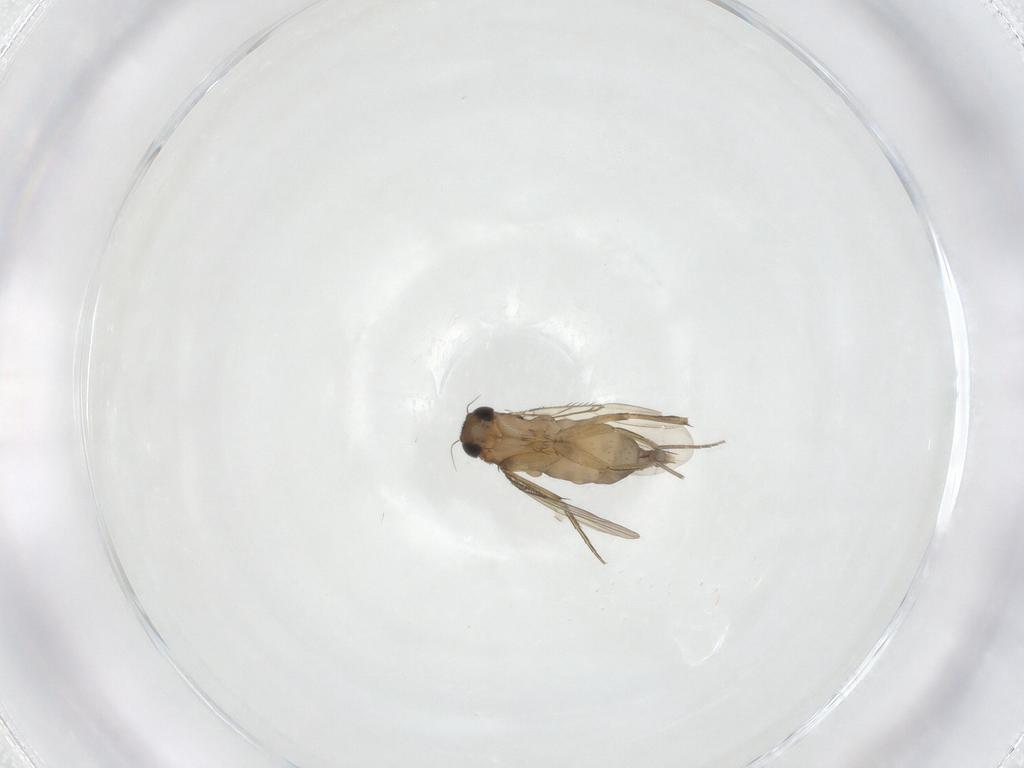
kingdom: Animalia
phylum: Arthropoda
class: Insecta
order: Diptera
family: Phoridae
